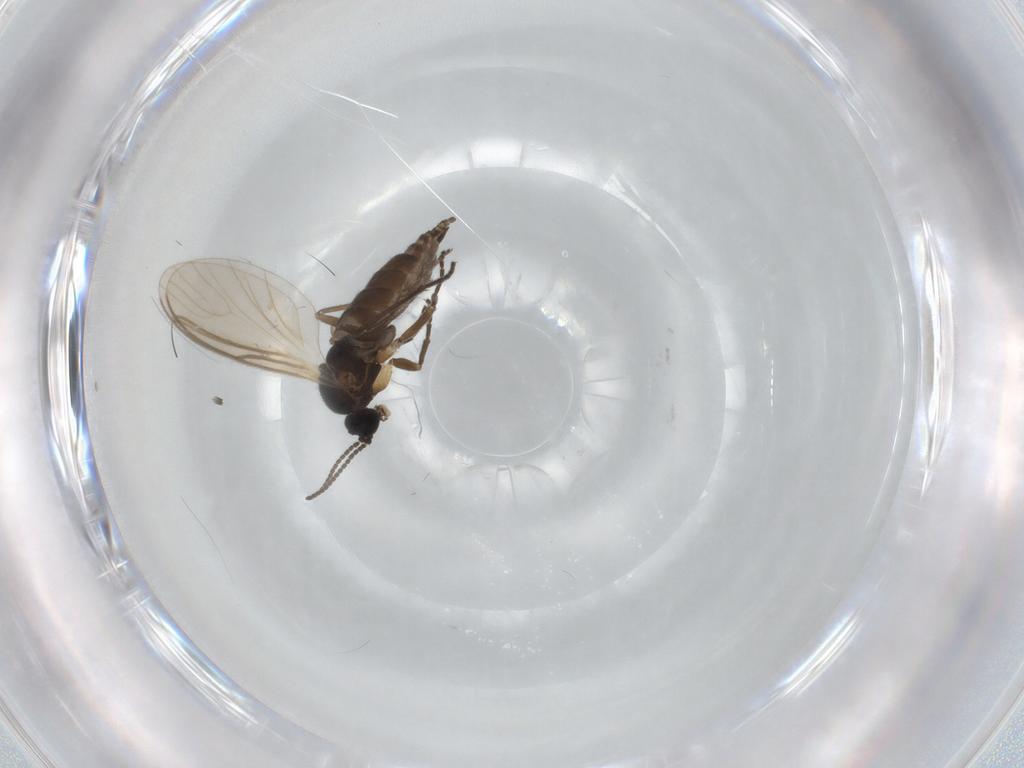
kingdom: Animalia
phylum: Arthropoda
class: Insecta
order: Diptera
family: Chironomidae
